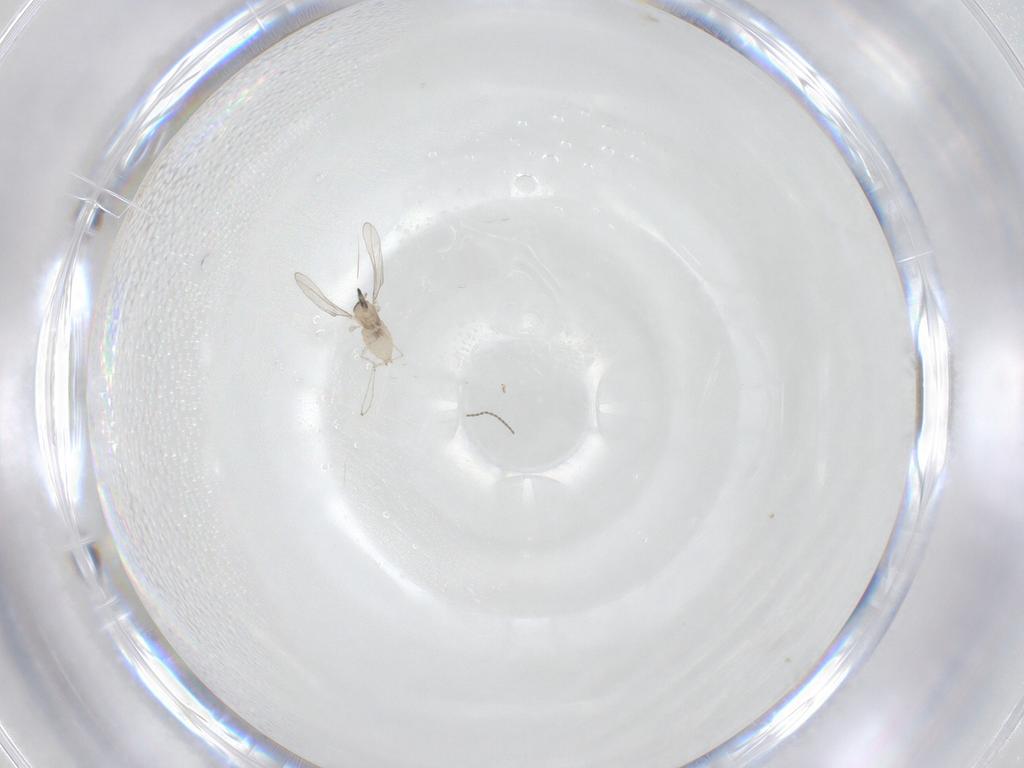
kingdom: Animalia
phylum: Arthropoda
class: Insecta
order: Diptera
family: Cecidomyiidae
